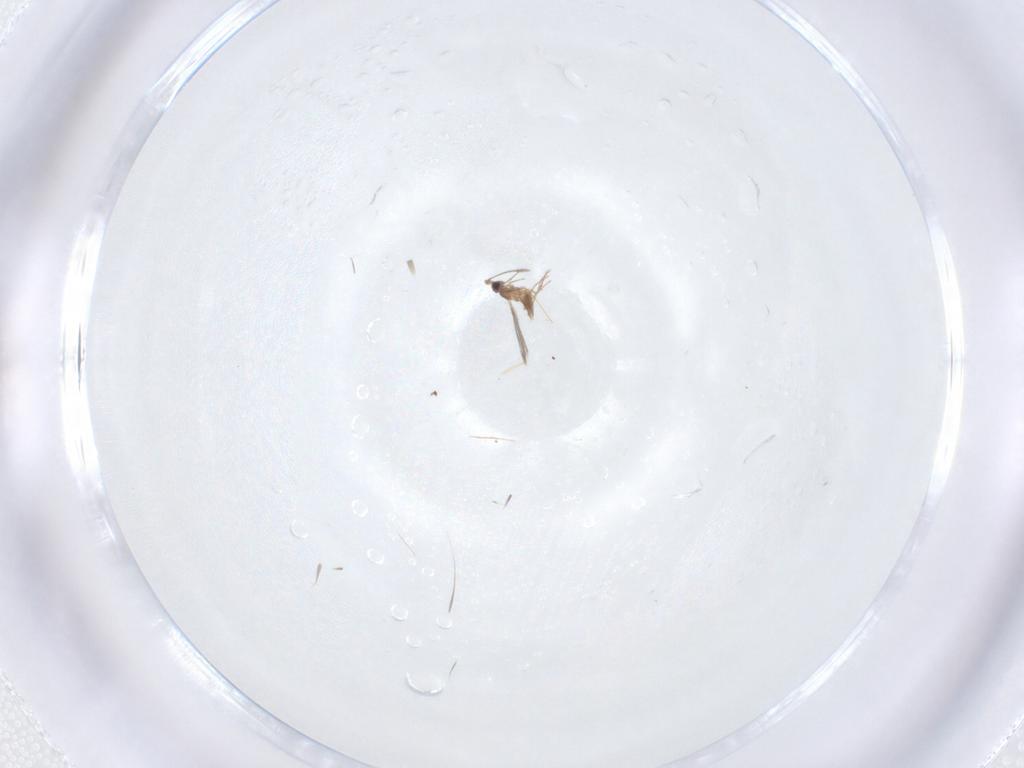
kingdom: Animalia
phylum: Arthropoda
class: Insecta
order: Hymenoptera
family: Mymaridae
